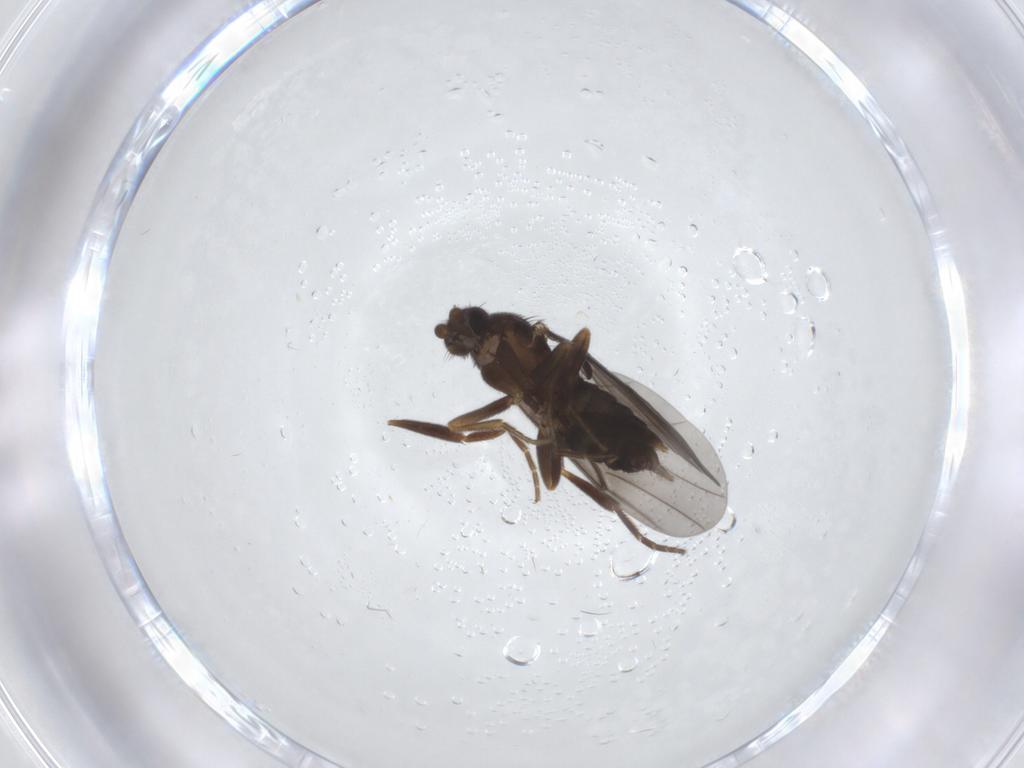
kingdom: Animalia
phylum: Arthropoda
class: Insecta
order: Diptera
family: Phoridae
